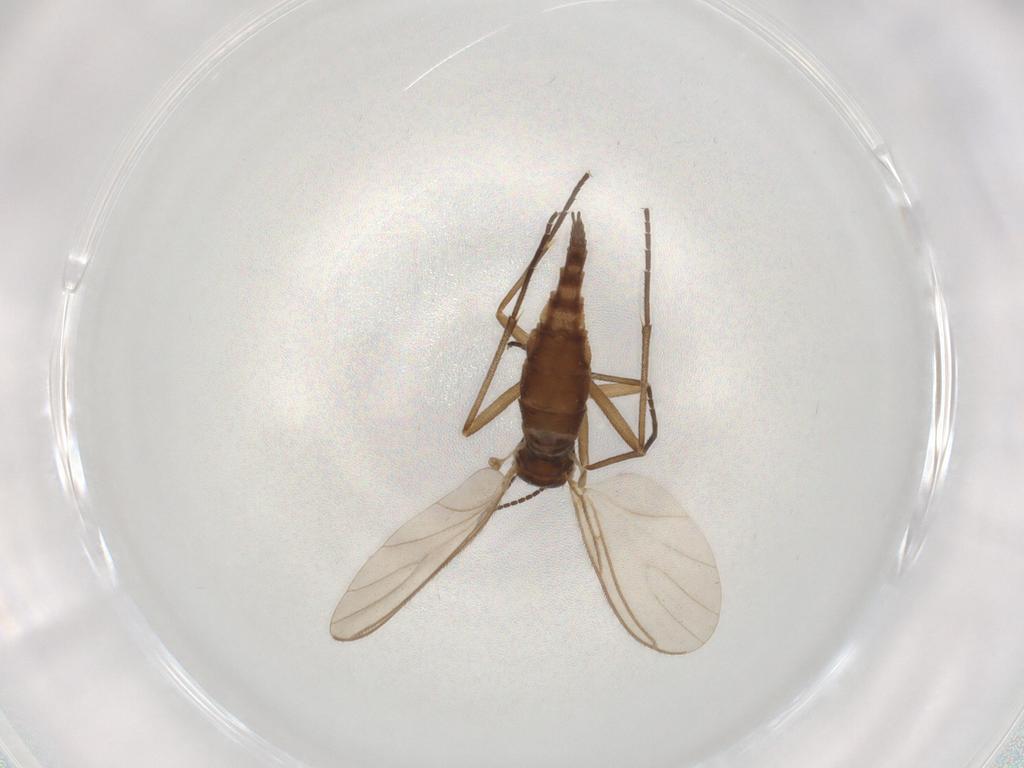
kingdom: Animalia
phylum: Arthropoda
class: Insecta
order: Diptera
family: Sciaridae
